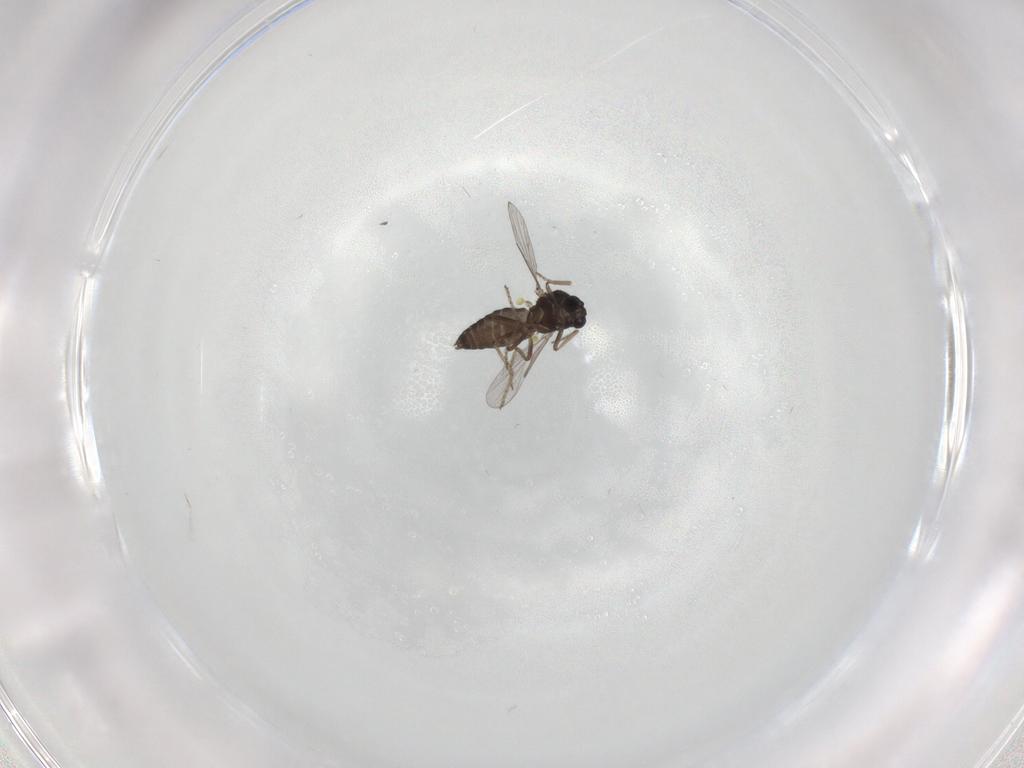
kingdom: Animalia
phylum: Arthropoda
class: Insecta
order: Diptera
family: Ceratopogonidae
